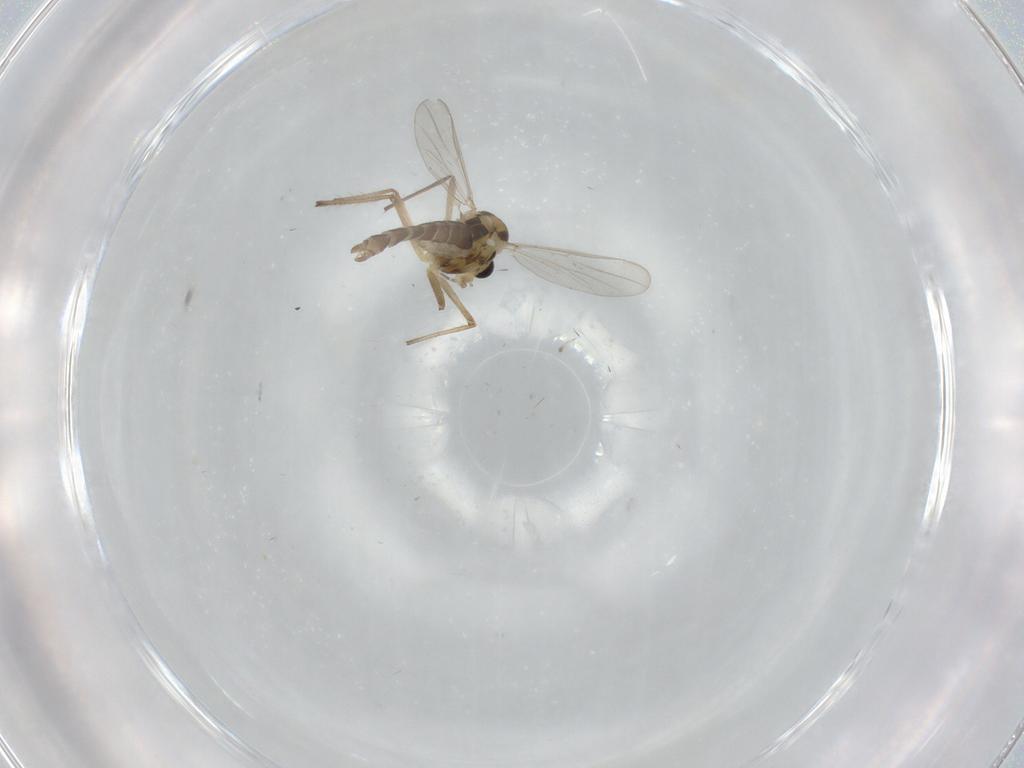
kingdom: Animalia
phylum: Arthropoda
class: Insecta
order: Diptera
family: Chironomidae
